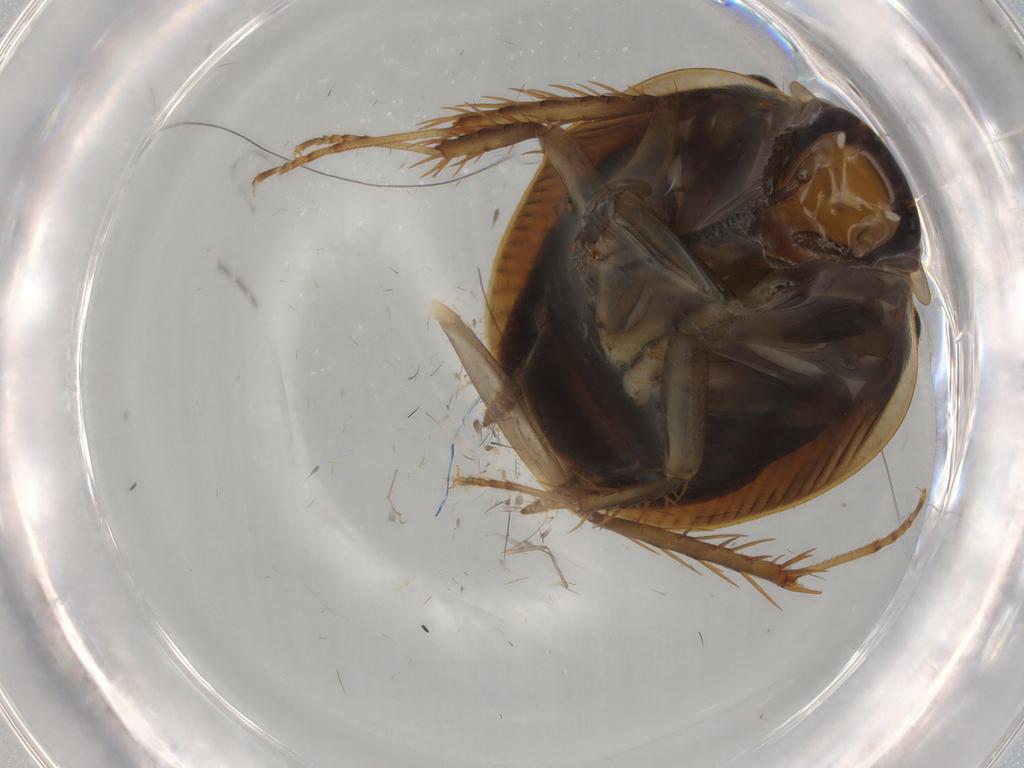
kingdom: Animalia
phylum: Arthropoda
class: Insecta
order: Blattodea
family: Ectobiidae
